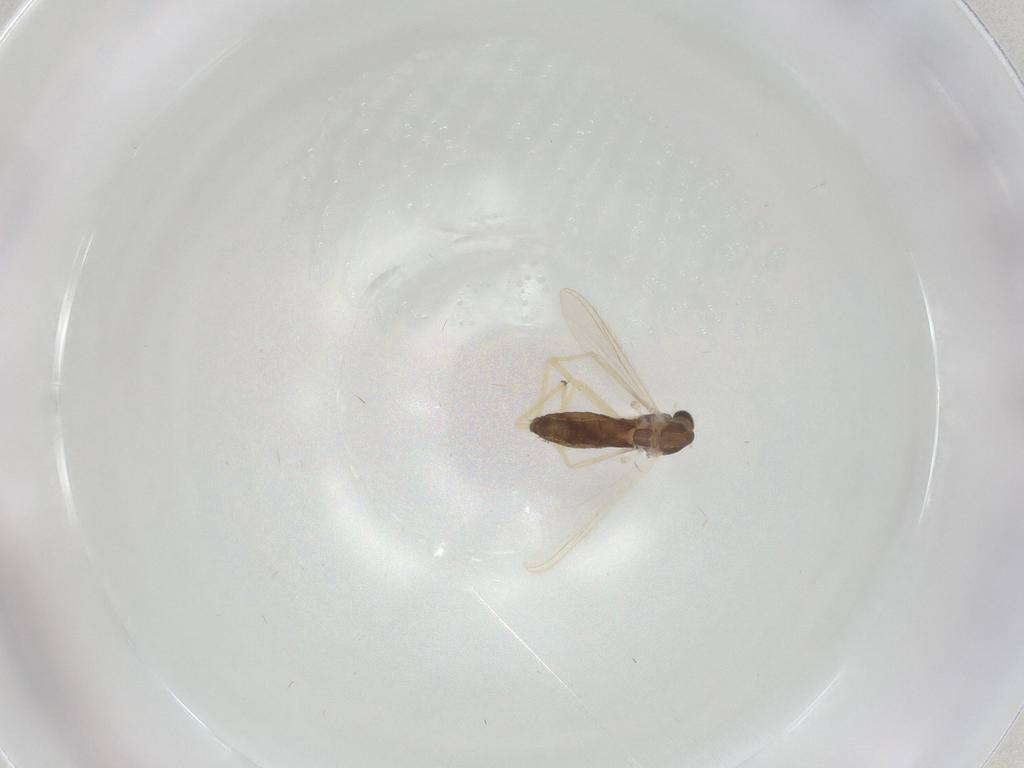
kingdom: Animalia
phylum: Arthropoda
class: Insecta
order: Diptera
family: Chironomidae
